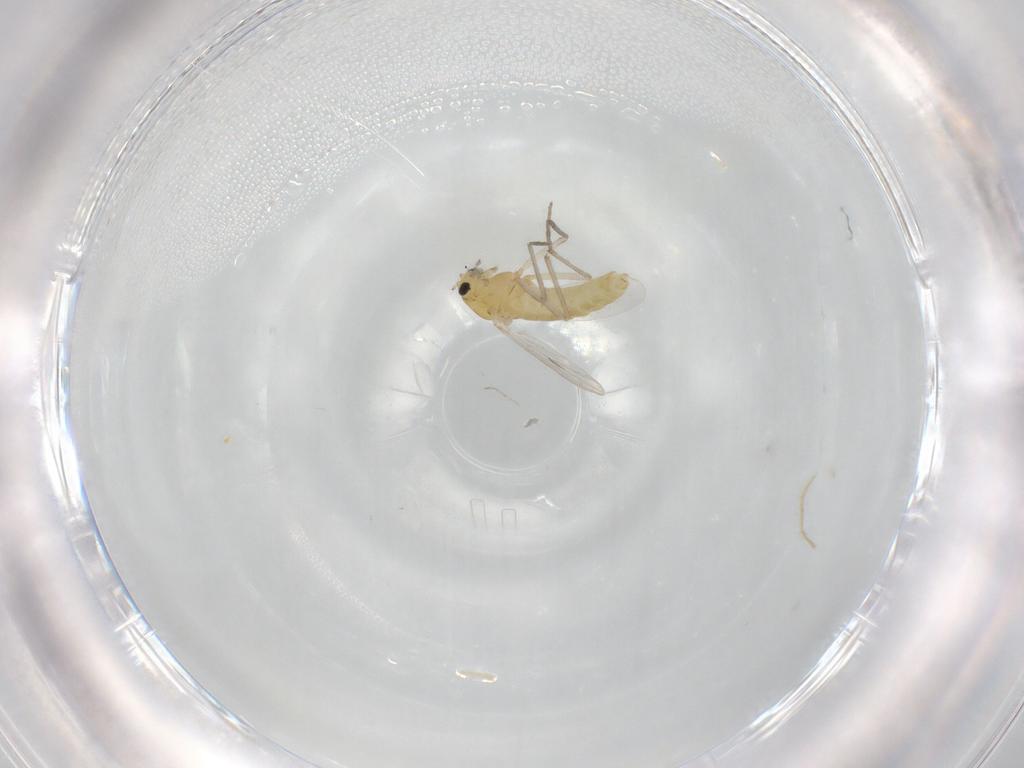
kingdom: Animalia
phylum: Arthropoda
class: Insecta
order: Diptera
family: Chironomidae
